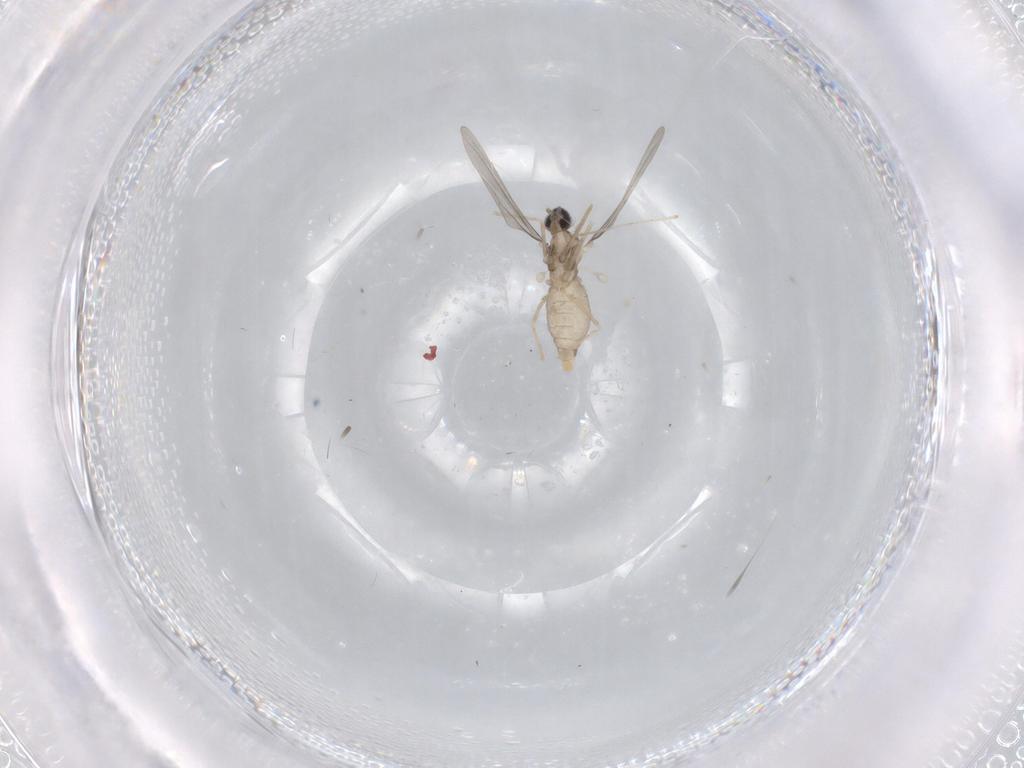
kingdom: Animalia
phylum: Arthropoda
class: Insecta
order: Diptera
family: Cecidomyiidae
